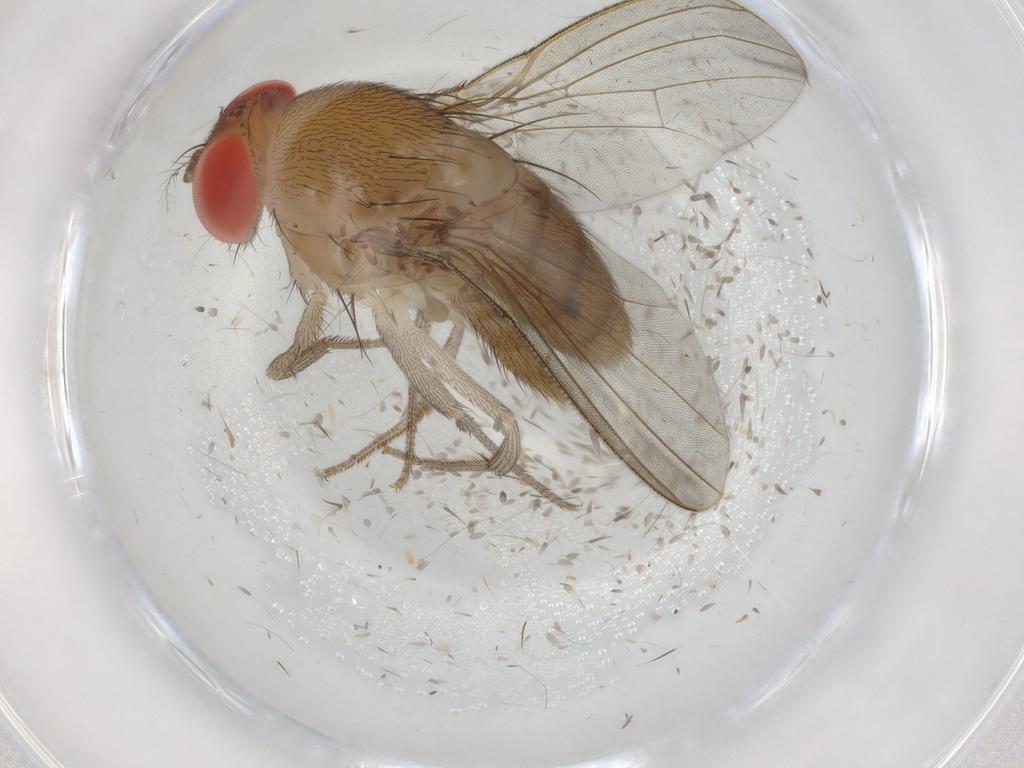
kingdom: Animalia
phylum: Arthropoda
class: Insecta
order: Diptera
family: Drosophilidae
